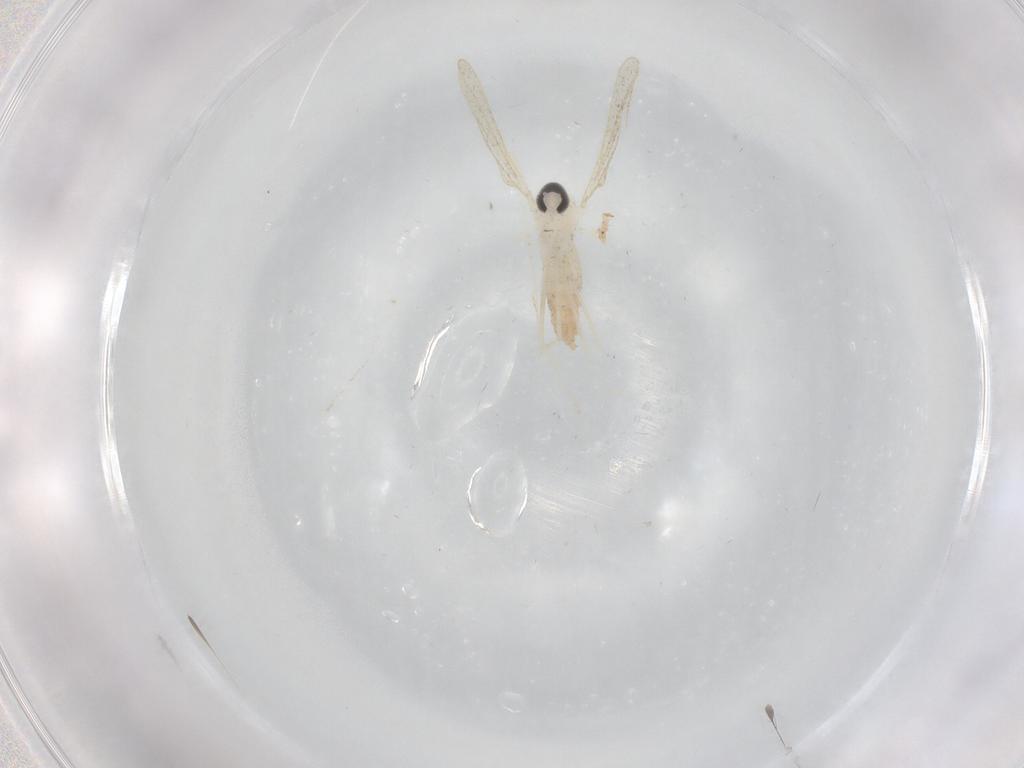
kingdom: Animalia
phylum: Arthropoda
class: Insecta
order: Diptera
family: Cecidomyiidae
